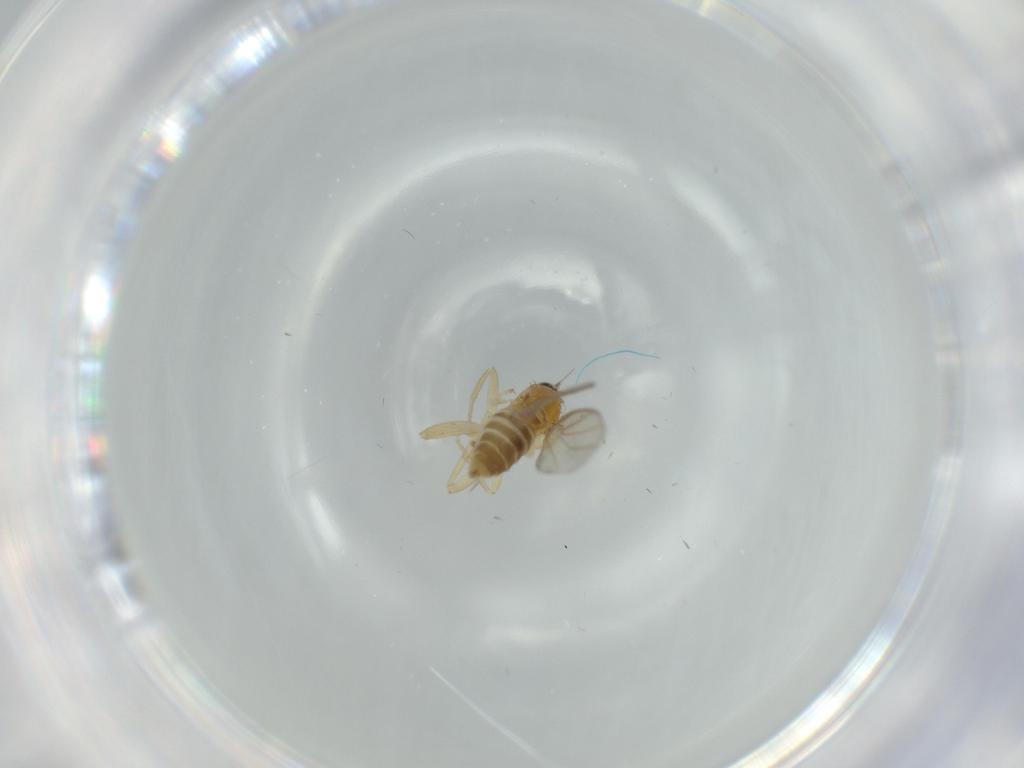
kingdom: Animalia
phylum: Arthropoda
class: Insecta
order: Diptera
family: Hybotidae
